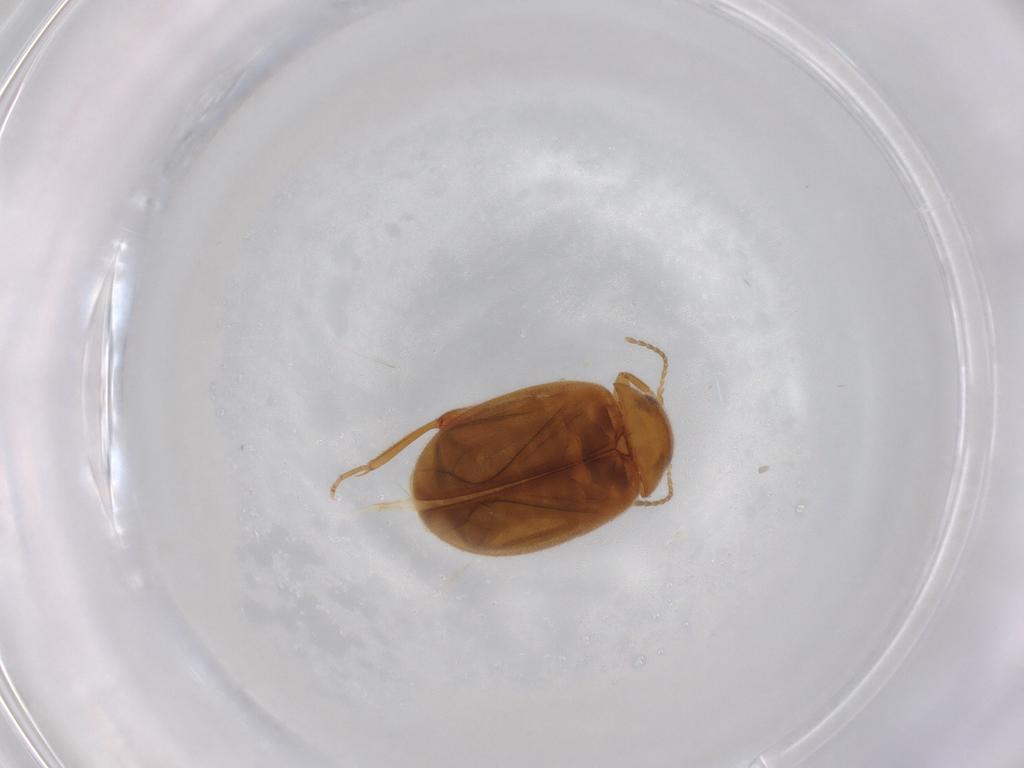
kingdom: Animalia
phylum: Arthropoda
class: Insecta
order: Coleoptera
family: Scirtidae
